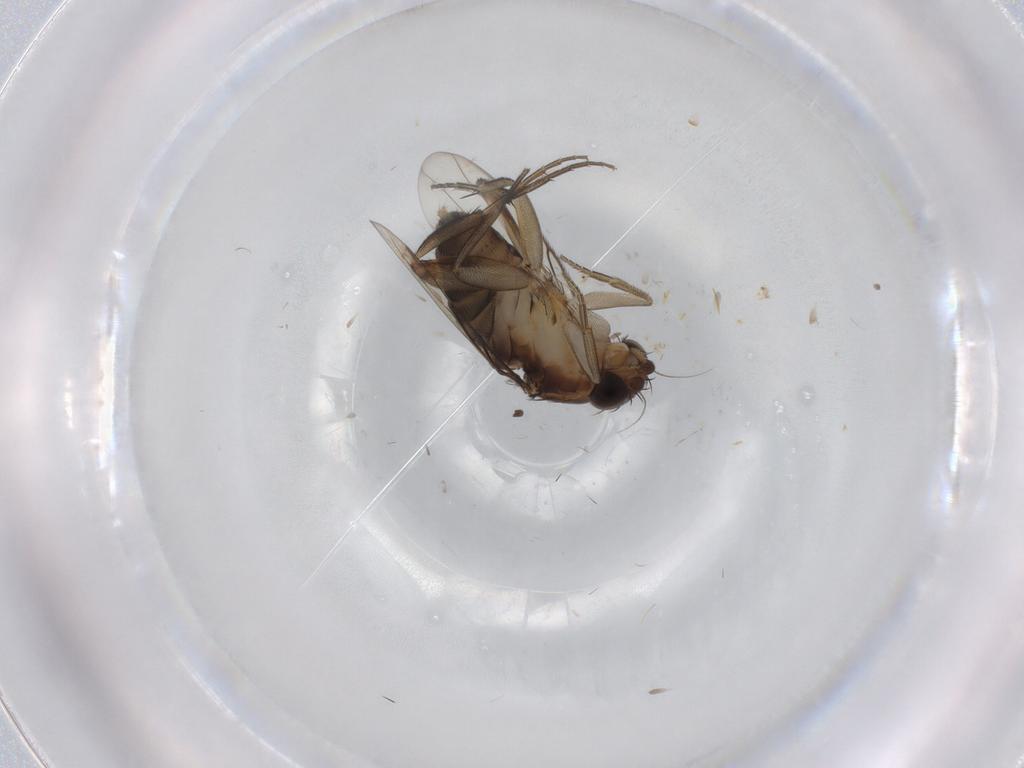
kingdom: Animalia
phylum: Arthropoda
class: Insecta
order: Diptera
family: Phoridae
